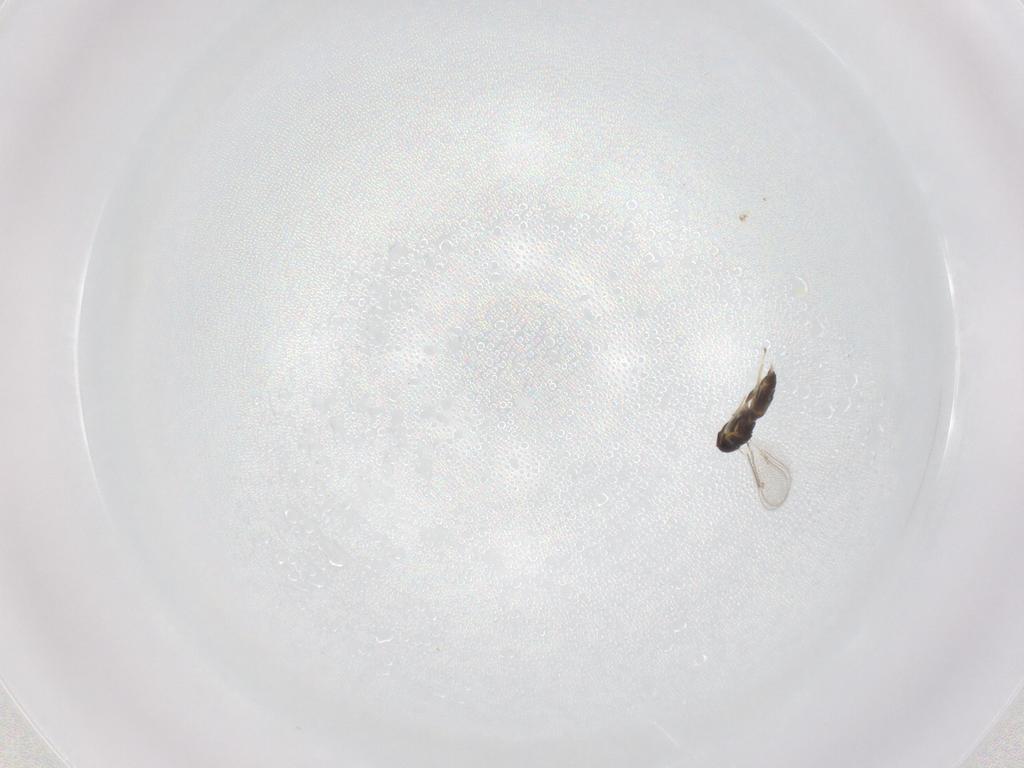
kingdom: Animalia
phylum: Arthropoda
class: Insecta
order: Hymenoptera
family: Eulophidae
